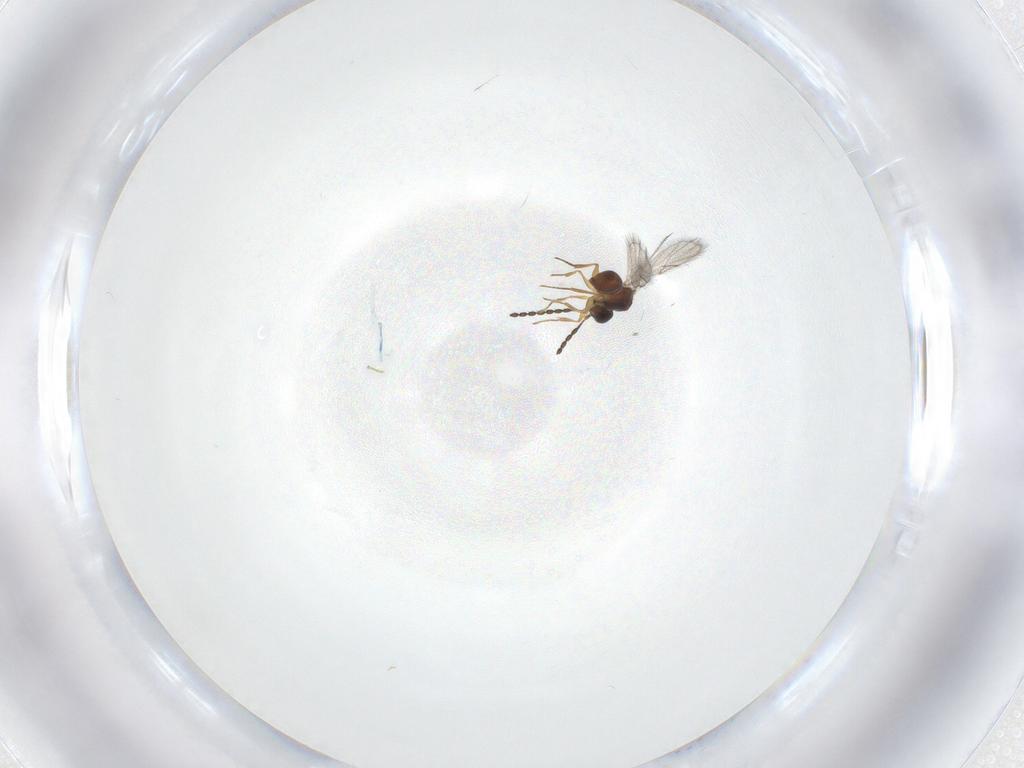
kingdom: Animalia
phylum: Arthropoda
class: Insecta
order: Hymenoptera
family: Figitidae
